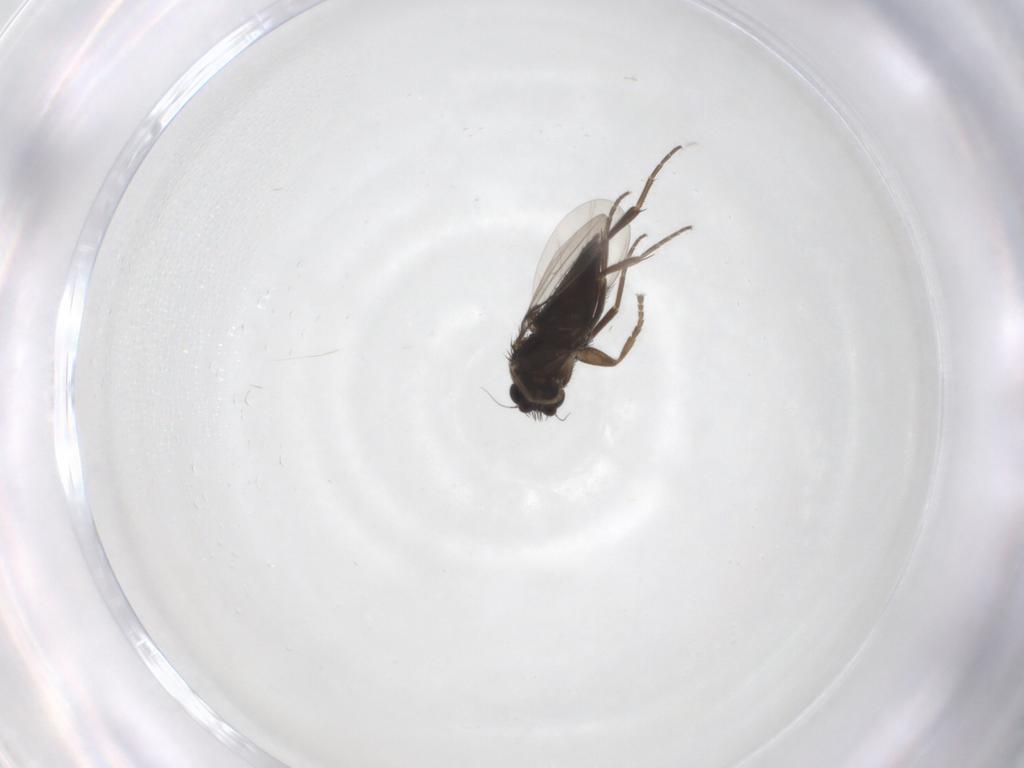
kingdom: Animalia
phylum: Arthropoda
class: Insecta
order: Diptera
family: Phoridae
